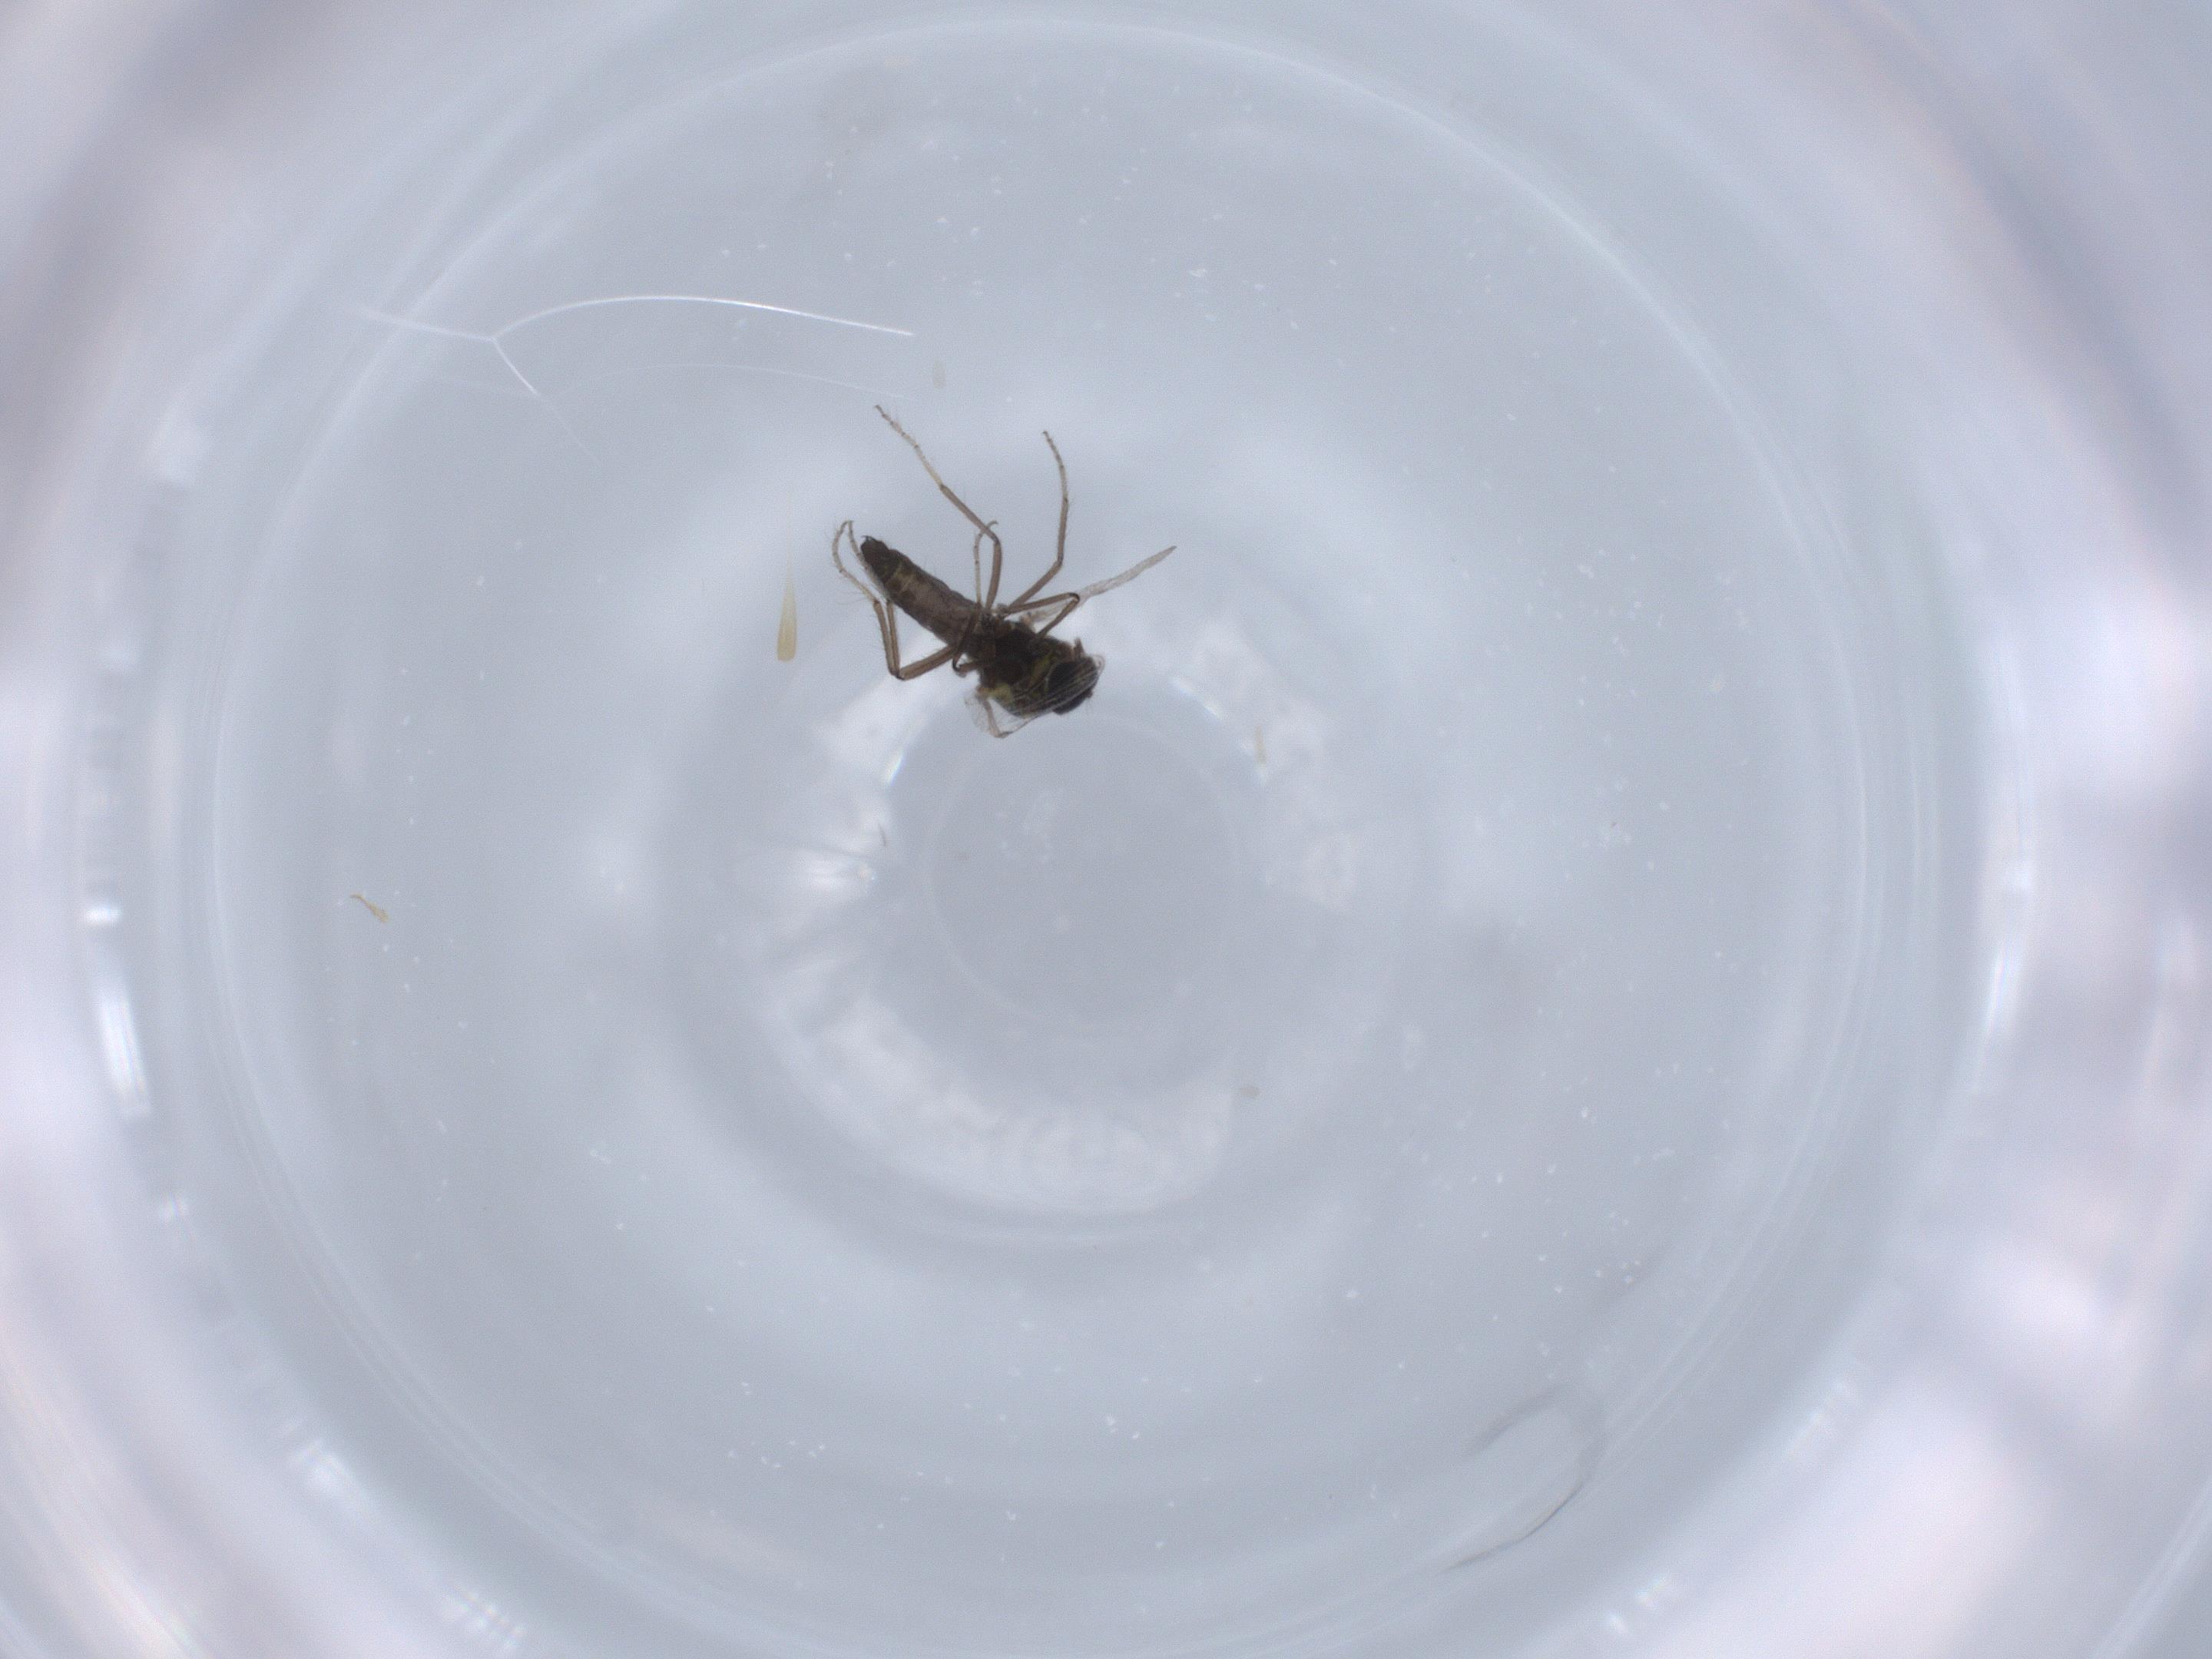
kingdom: Animalia
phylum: Arthropoda
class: Insecta
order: Diptera
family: Ceratopogonidae
